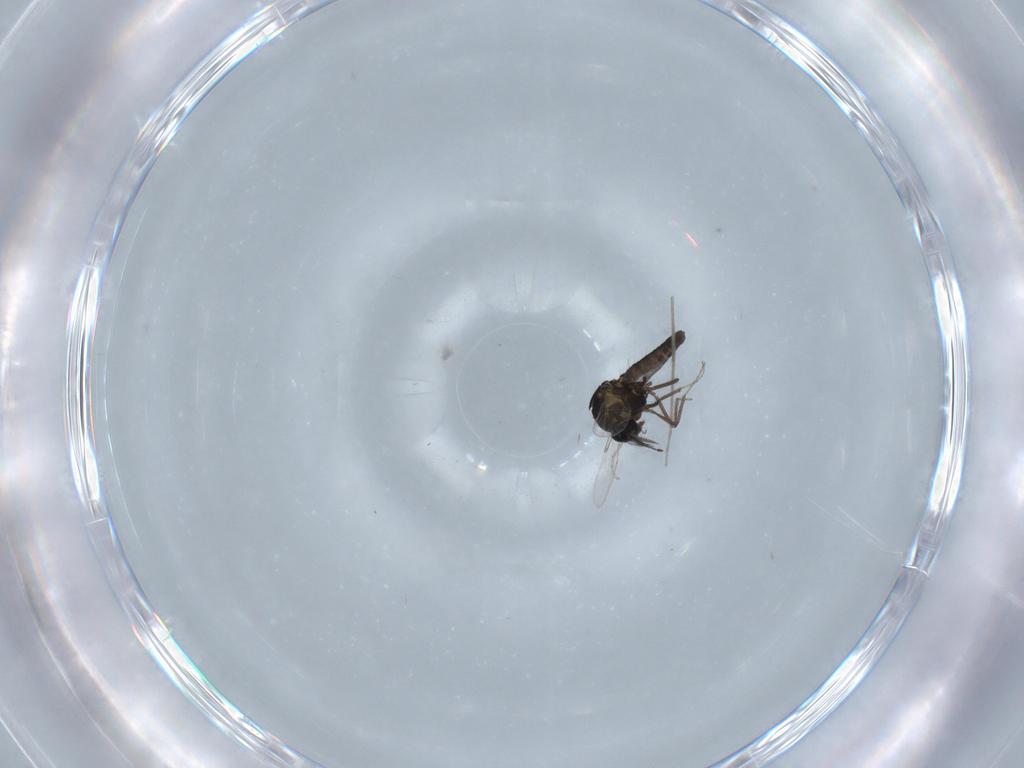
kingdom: Animalia
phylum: Arthropoda
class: Insecta
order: Diptera
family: Ceratopogonidae
